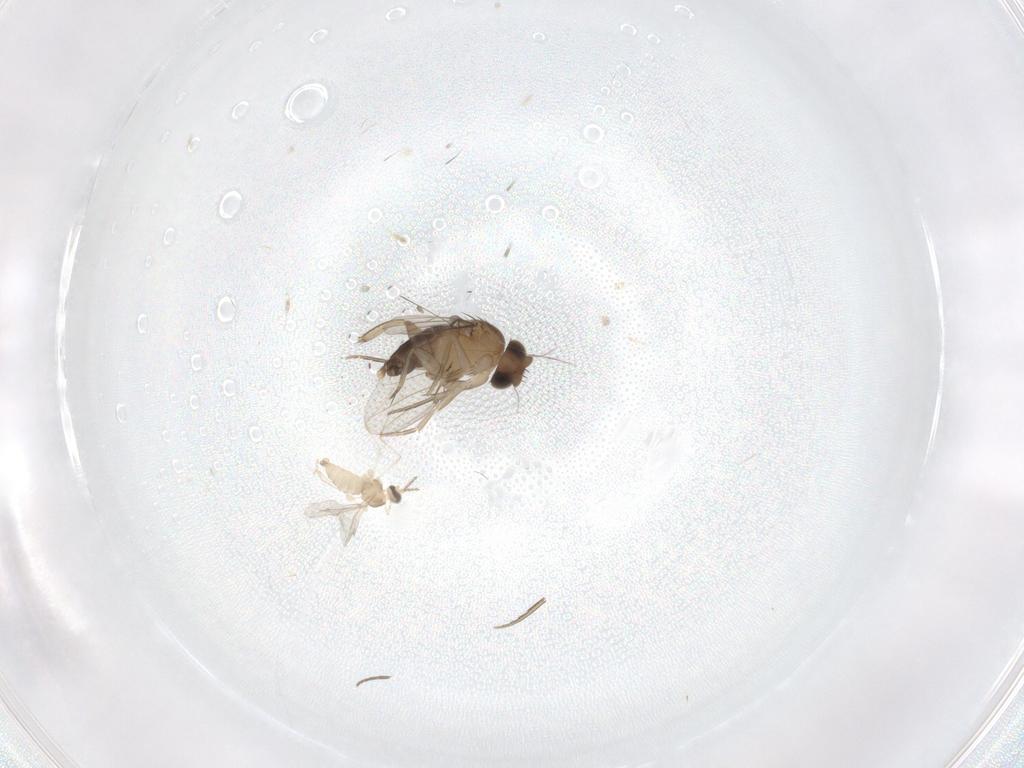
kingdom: Animalia
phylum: Arthropoda
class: Insecta
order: Diptera
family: Phoridae
